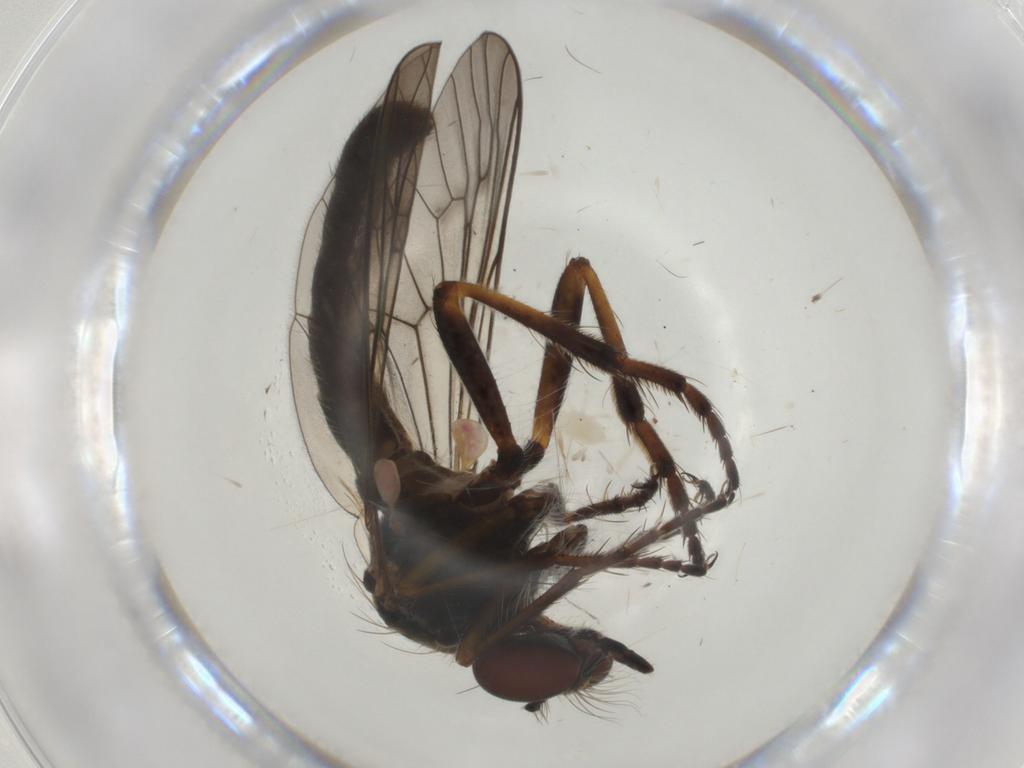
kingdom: Animalia
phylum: Arthropoda
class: Insecta
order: Diptera
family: Asilidae
